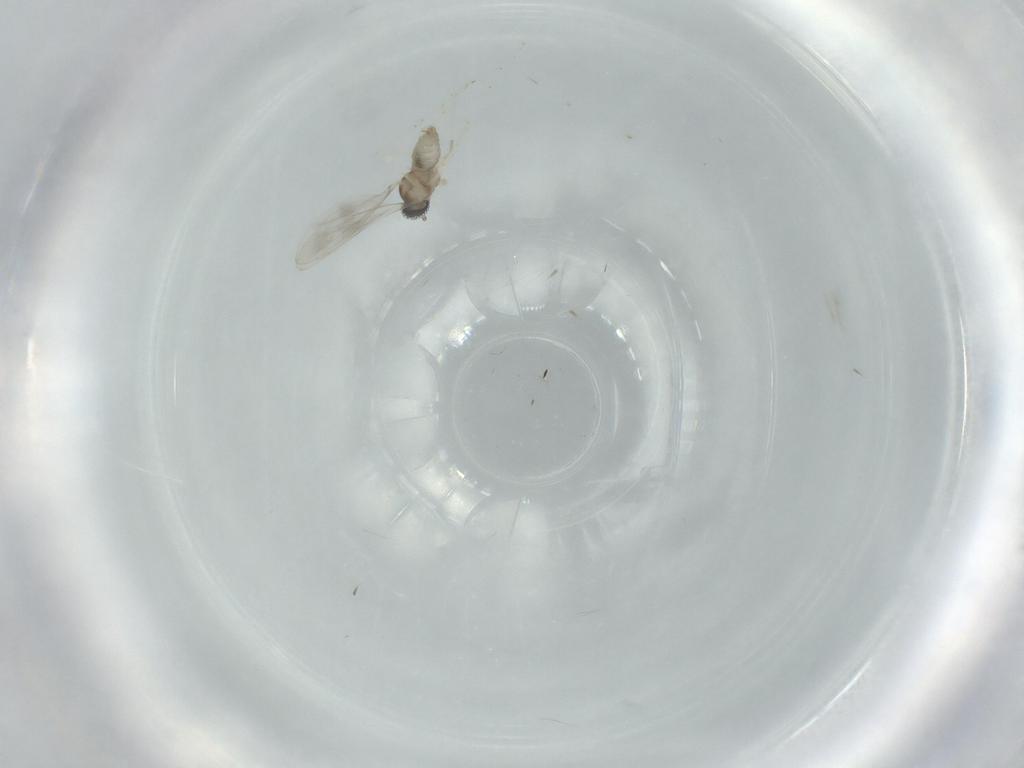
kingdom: Animalia
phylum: Arthropoda
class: Insecta
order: Diptera
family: Cecidomyiidae
